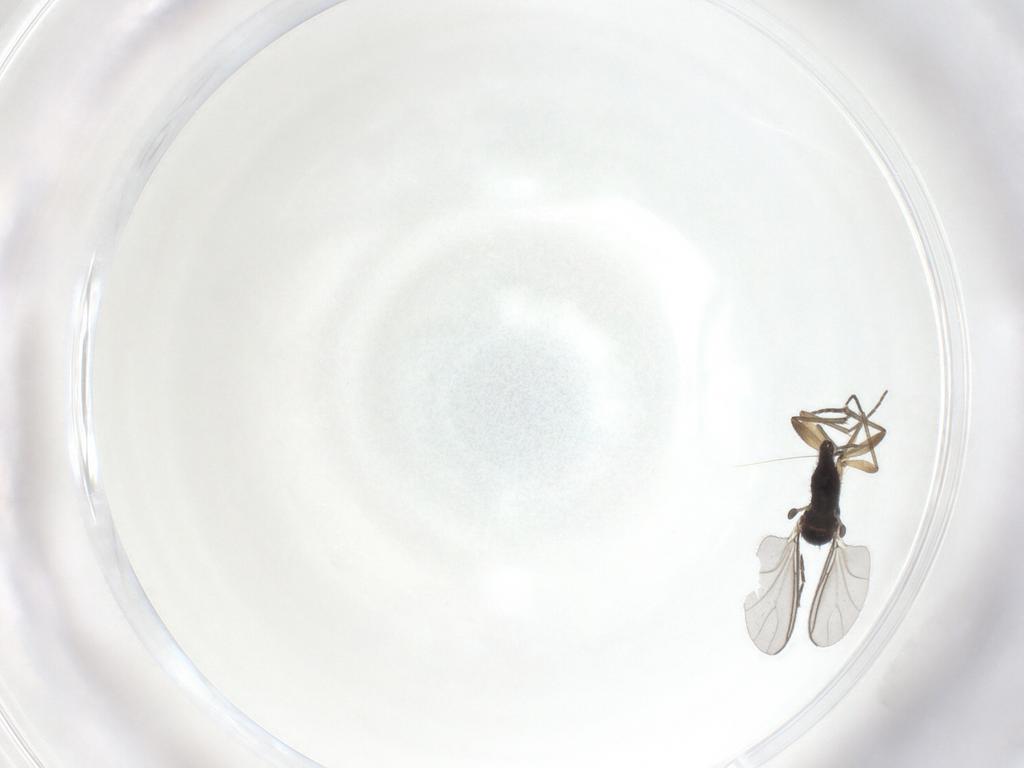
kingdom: Animalia
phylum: Arthropoda
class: Insecta
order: Diptera
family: Sciaridae
